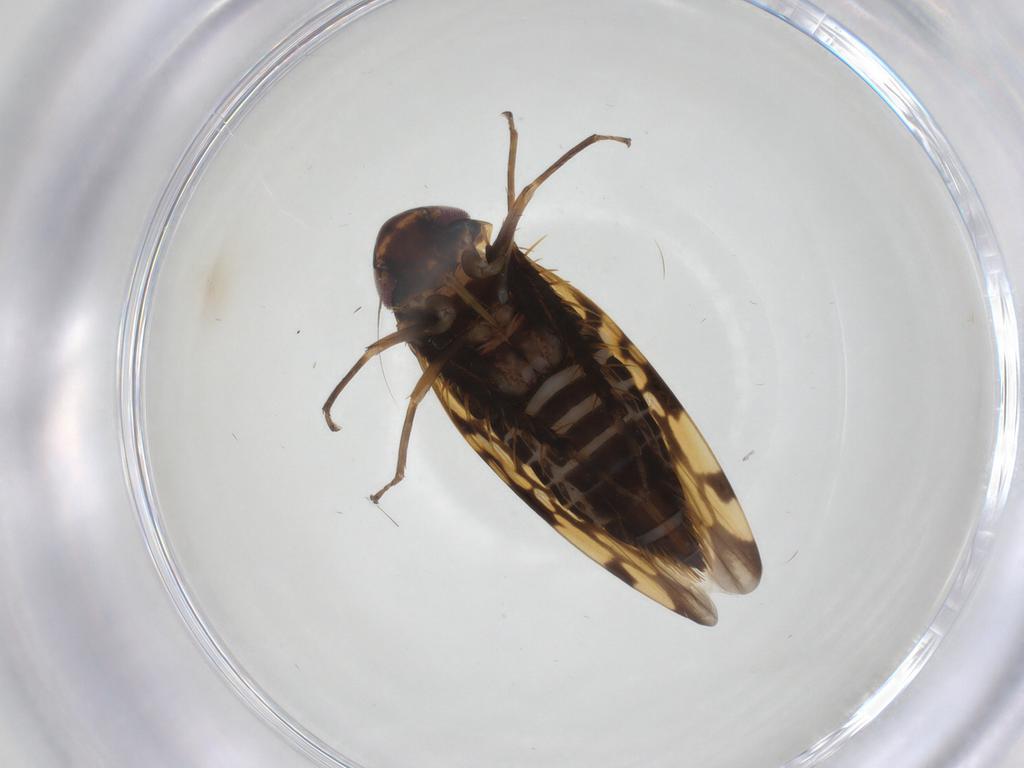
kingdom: Animalia
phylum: Arthropoda
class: Insecta
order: Hemiptera
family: Cicadellidae
